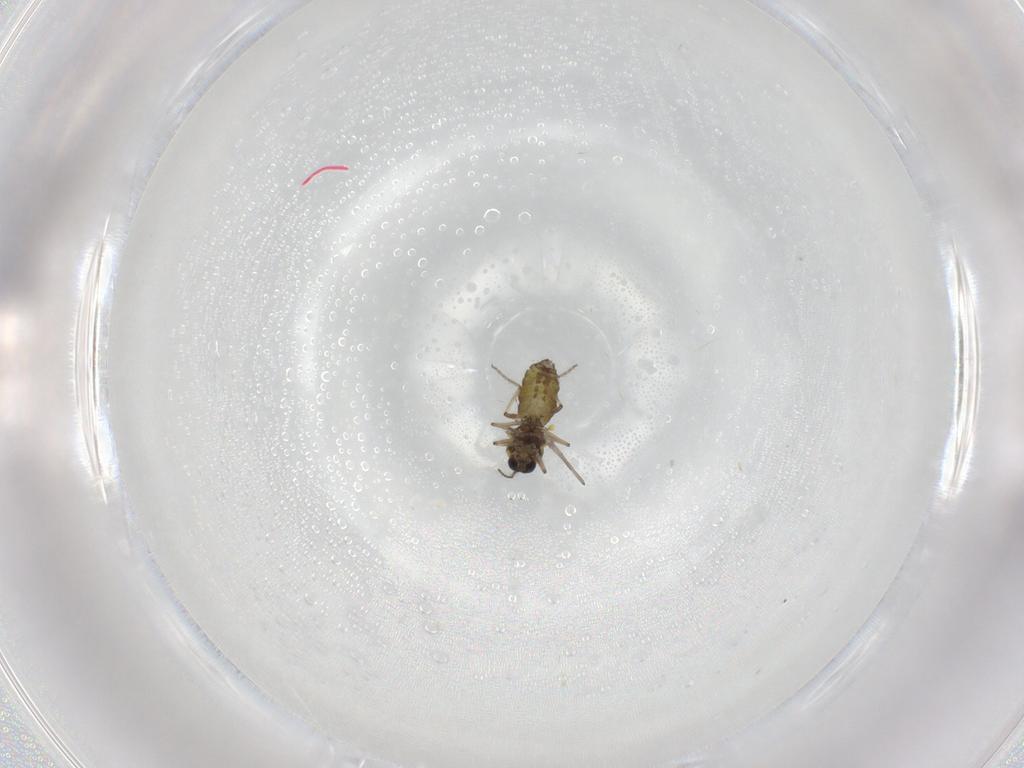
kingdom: Animalia
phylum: Arthropoda
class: Insecta
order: Diptera
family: Ceratopogonidae
